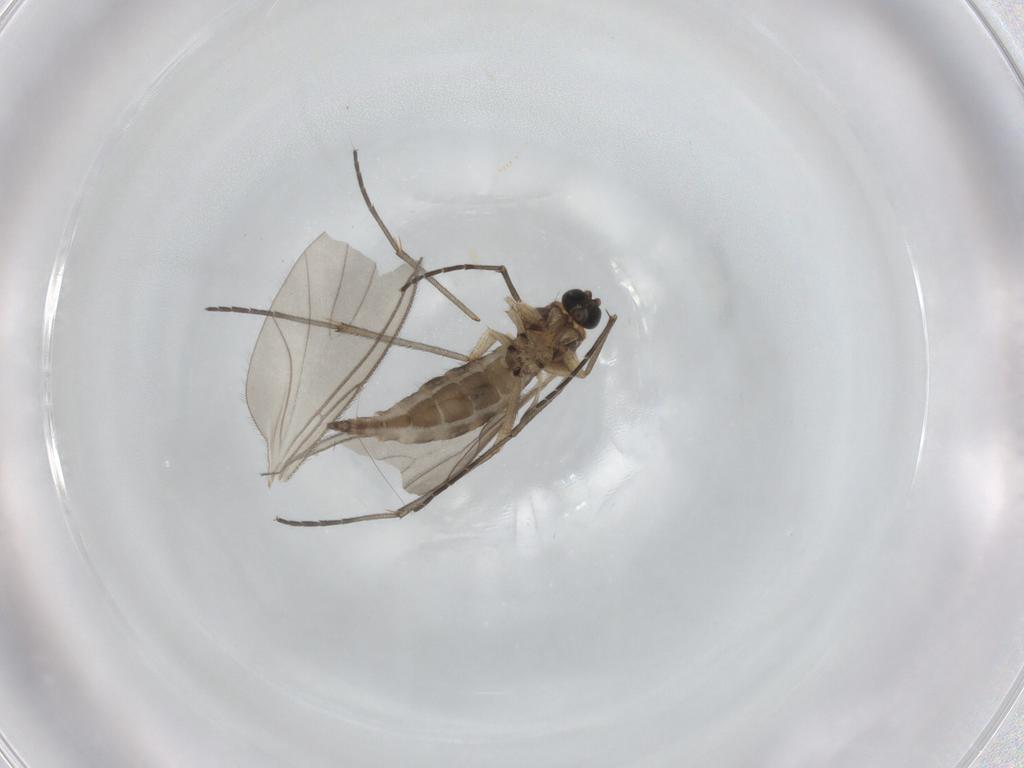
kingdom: Animalia
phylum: Arthropoda
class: Insecta
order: Diptera
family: Sciaridae
